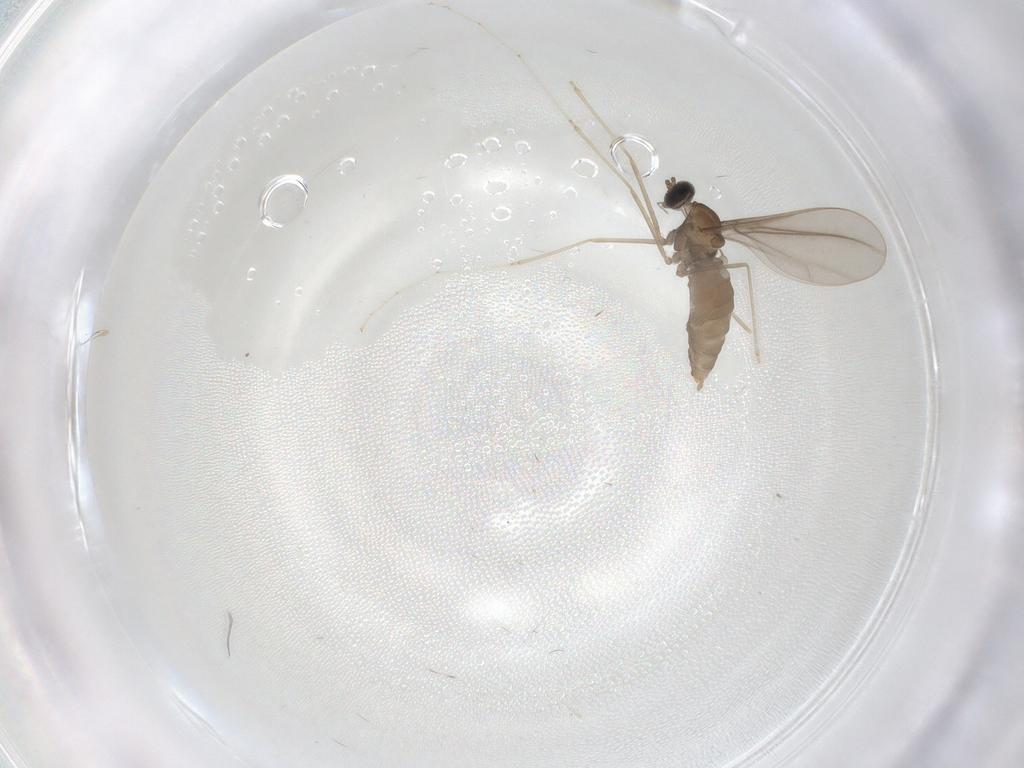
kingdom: Animalia
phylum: Arthropoda
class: Insecta
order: Diptera
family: Cecidomyiidae
